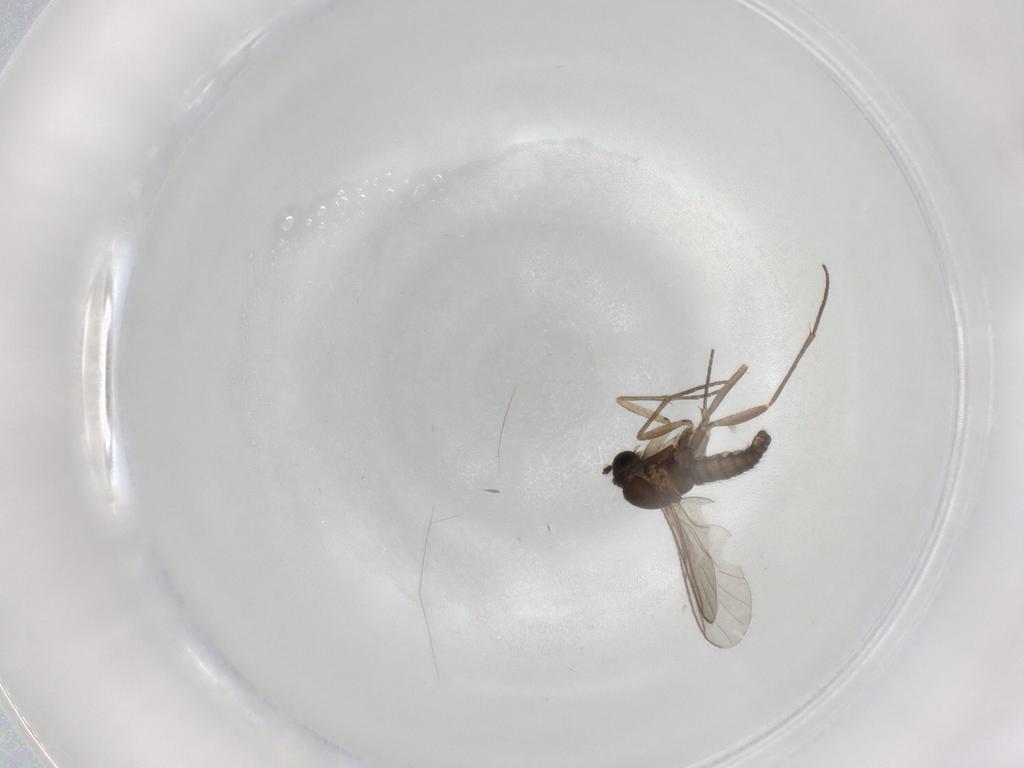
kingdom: Animalia
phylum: Arthropoda
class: Insecta
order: Diptera
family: Sciaridae
